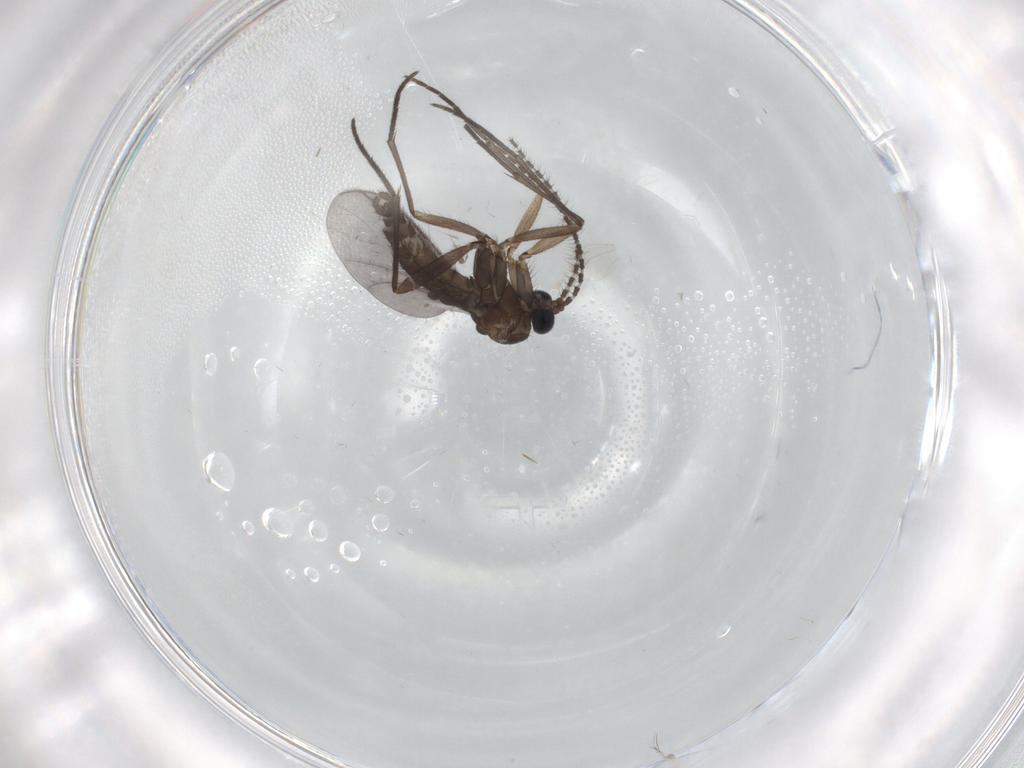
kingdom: Animalia
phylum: Arthropoda
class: Insecta
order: Diptera
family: Sciaridae
